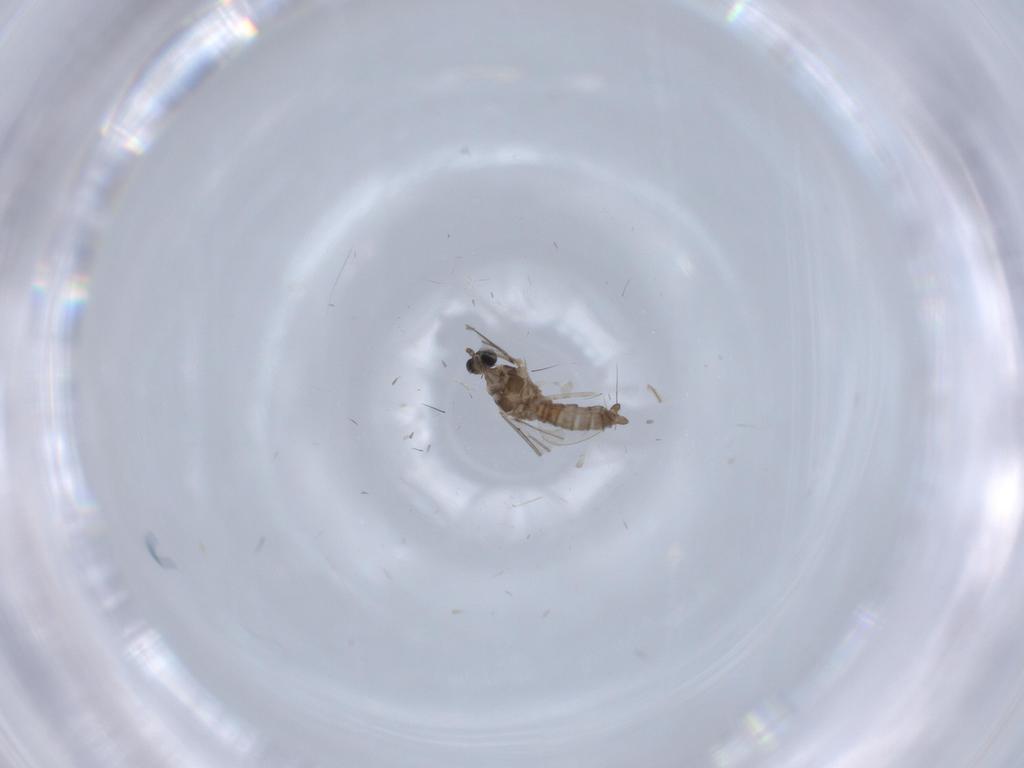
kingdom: Animalia
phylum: Arthropoda
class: Insecta
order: Diptera
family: Cecidomyiidae
